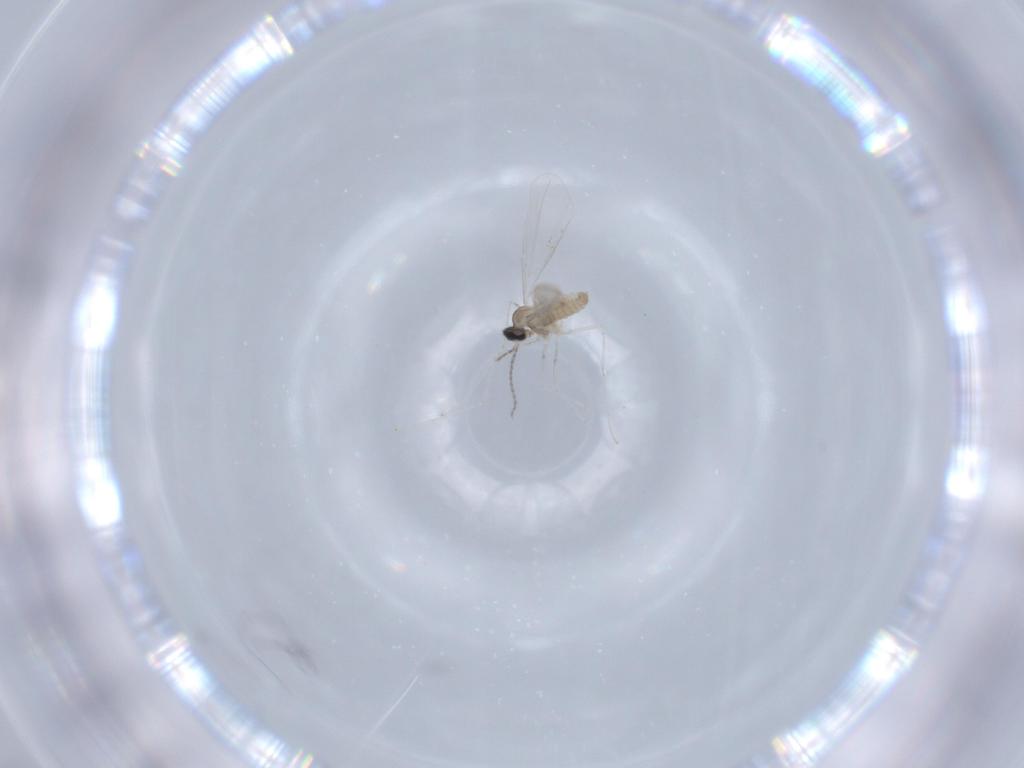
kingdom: Animalia
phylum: Arthropoda
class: Insecta
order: Diptera
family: Cecidomyiidae
